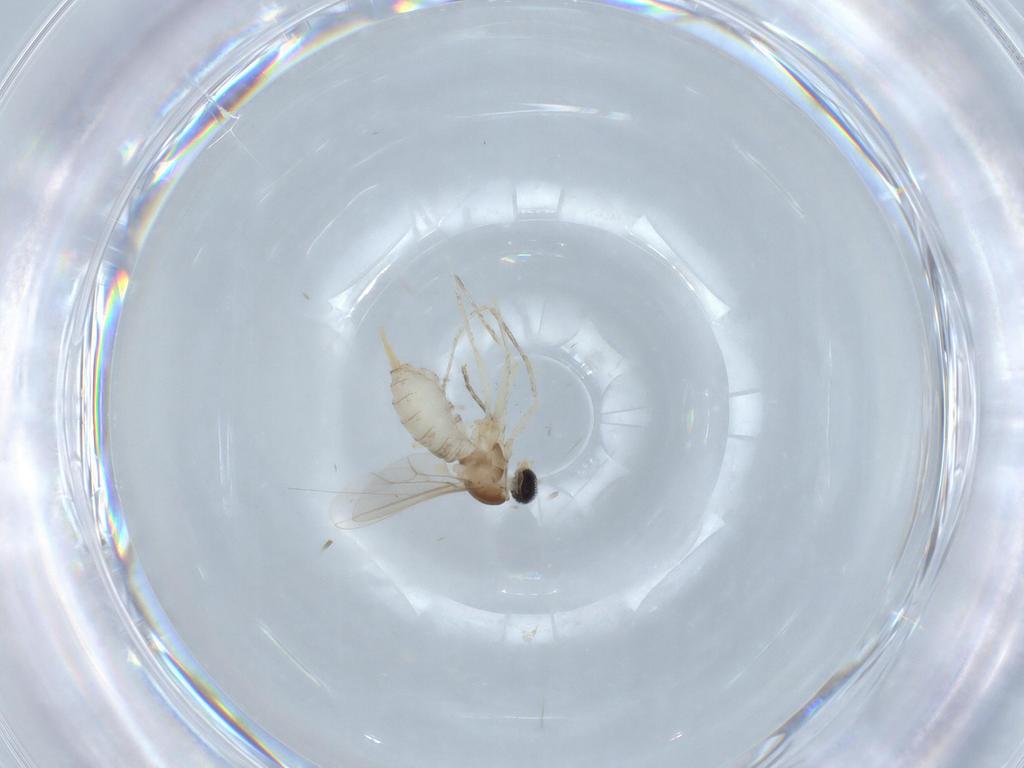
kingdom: Animalia
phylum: Arthropoda
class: Insecta
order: Diptera
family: Cecidomyiidae
